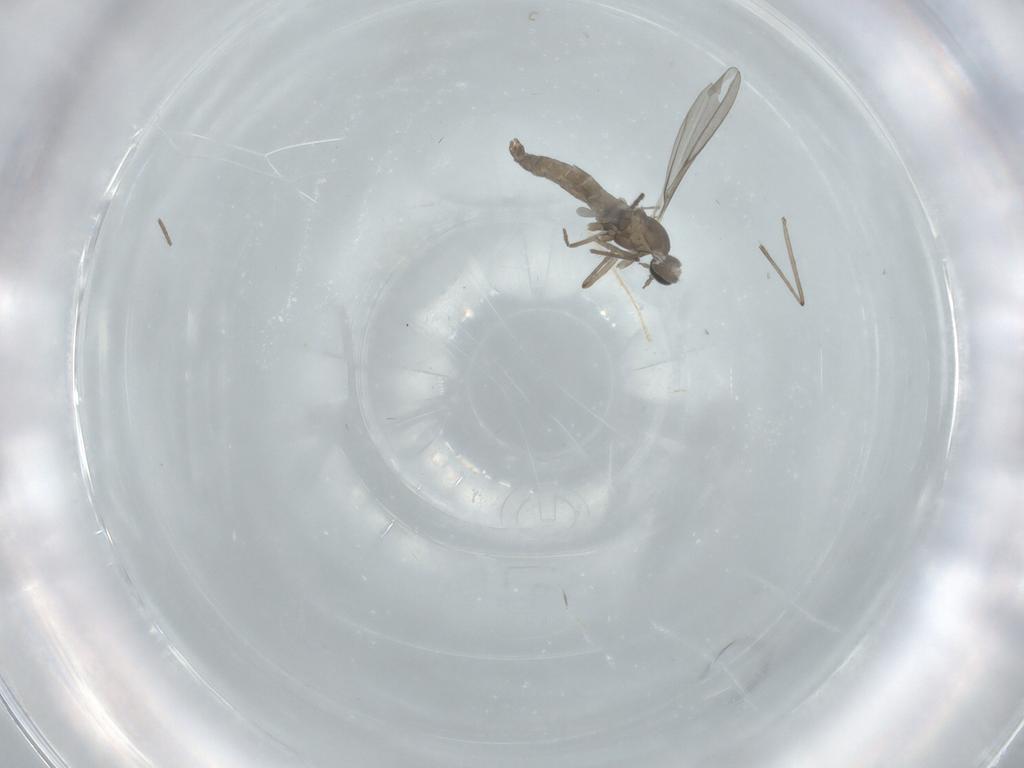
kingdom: Animalia
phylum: Arthropoda
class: Insecta
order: Diptera
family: Sciaridae
